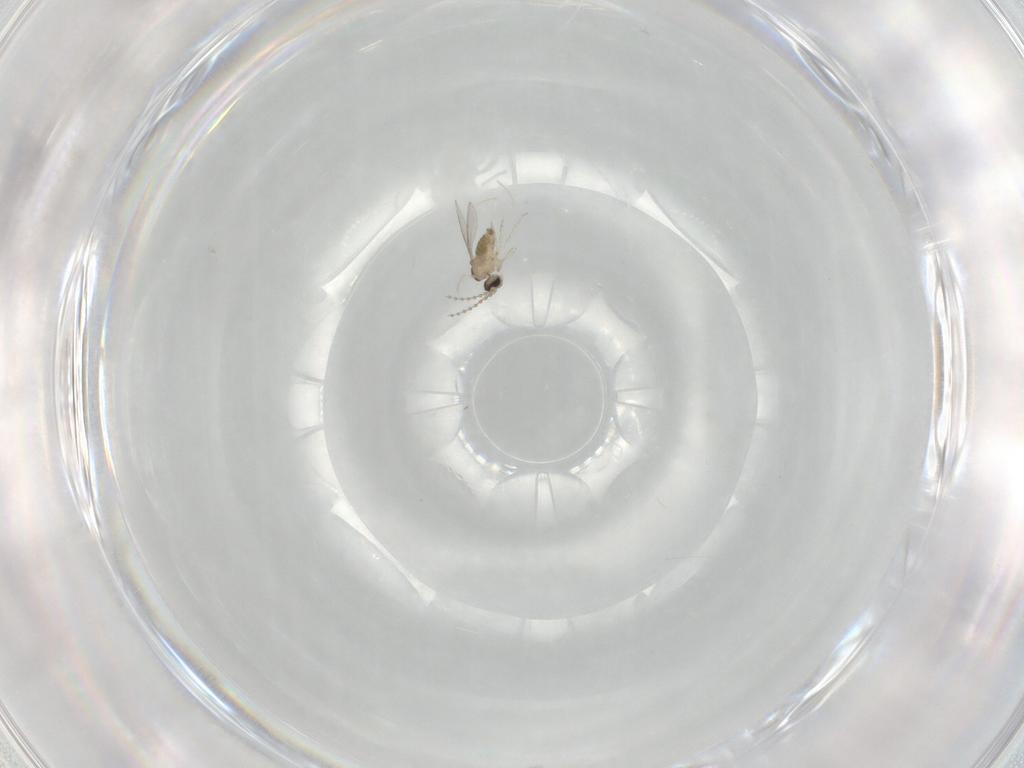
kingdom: Animalia
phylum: Arthropoda
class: Insecta
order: Diptera
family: Cecidomyiidae
